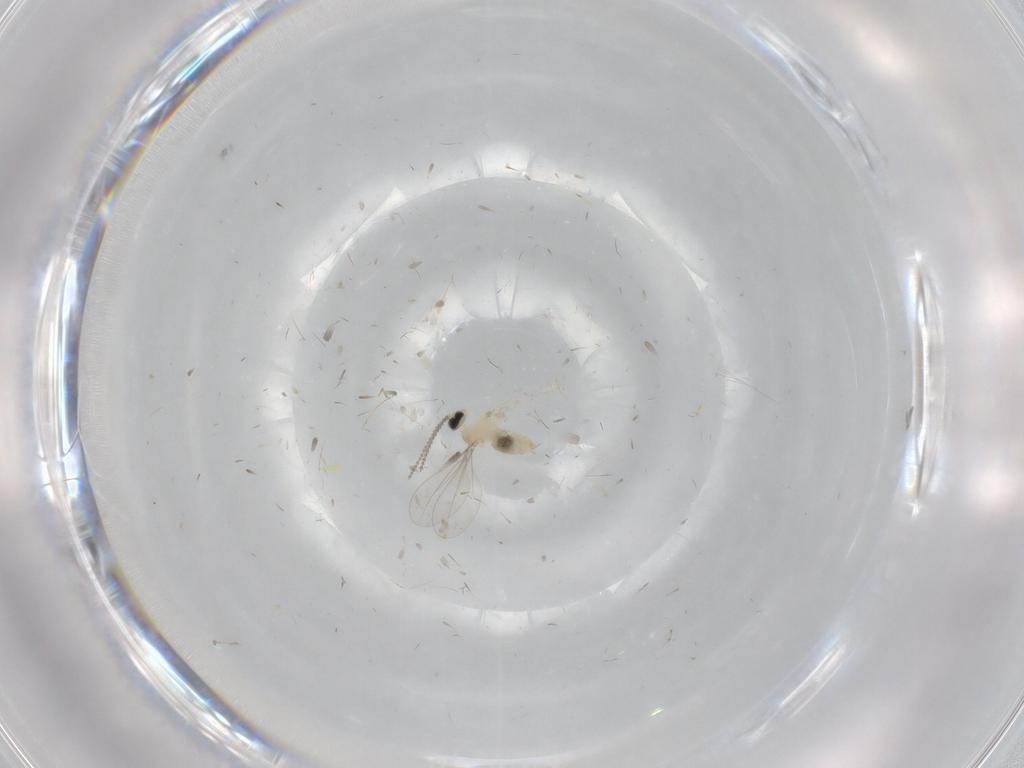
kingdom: Animalia
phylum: Arthropoda
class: Insecta
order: Diptera
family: Cecidomyiidae
